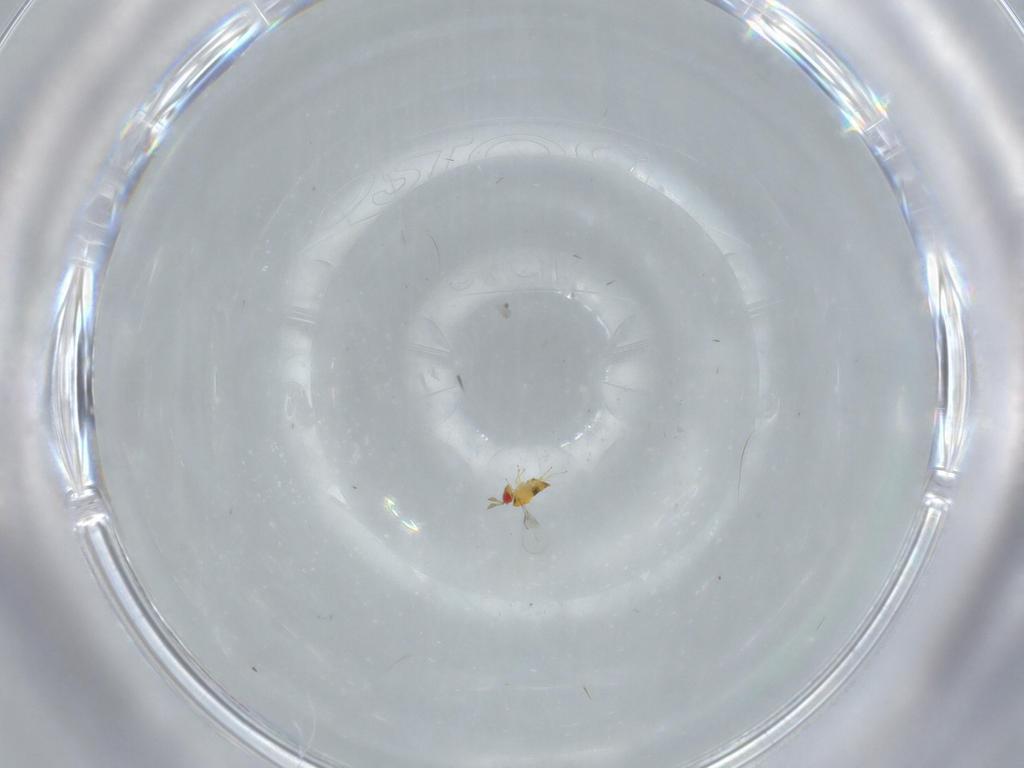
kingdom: Animalia
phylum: Arthropoda
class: Insecta
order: Hymenoptera
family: Trichogrammatidae
